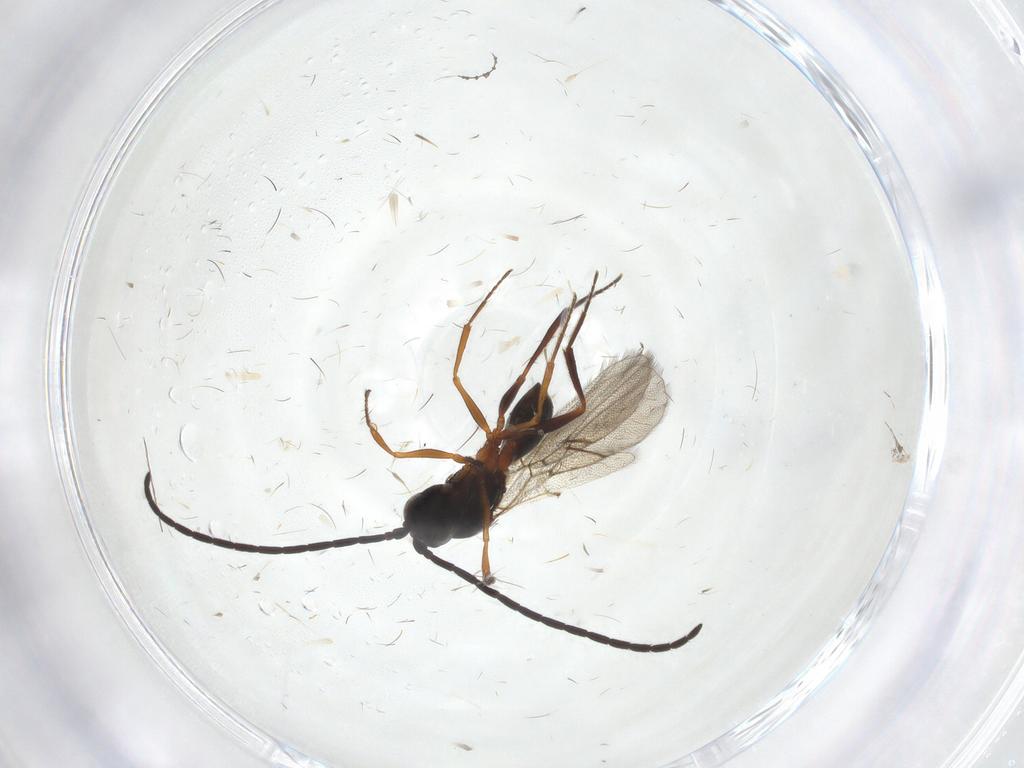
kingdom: Animalia
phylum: Arthropoda
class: Insecta
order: Hymenoptera
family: Figitidae
